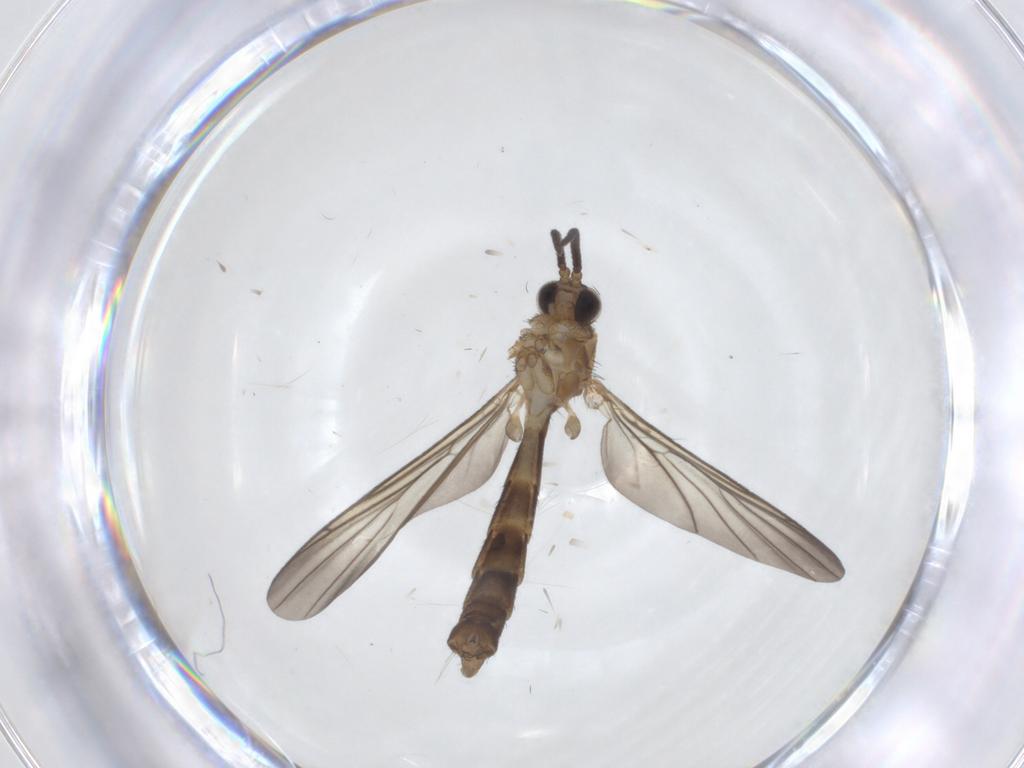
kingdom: Animalia
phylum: Arthropoda
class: Insecta
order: Diptera
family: Keroplatidae
